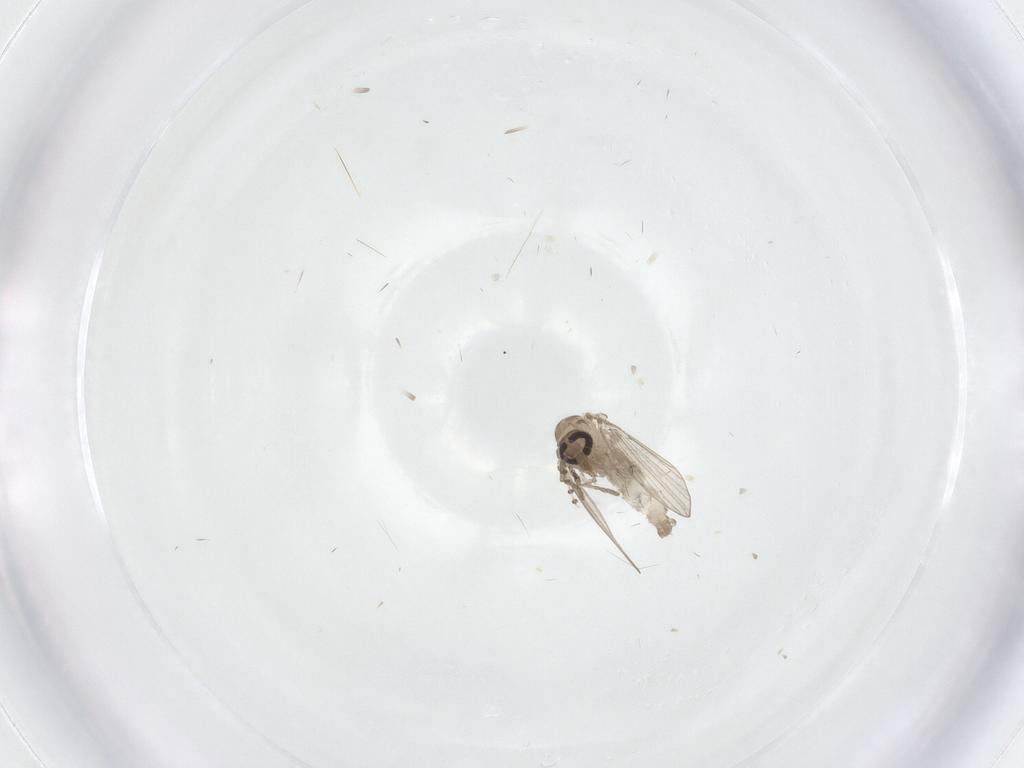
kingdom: Animalia
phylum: Arthropoda
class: Insecta
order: Diptera
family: Psychodidae
